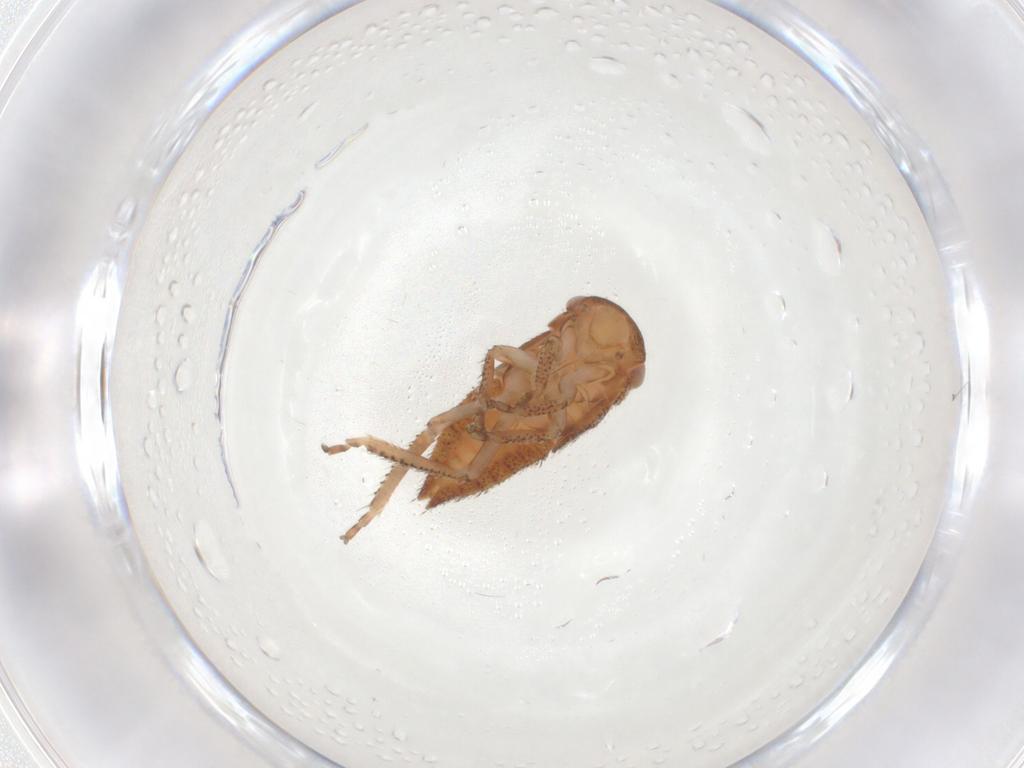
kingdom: Animalia
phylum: Arthropoda
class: Insecta
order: Hemiptera
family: Cicadellidae
